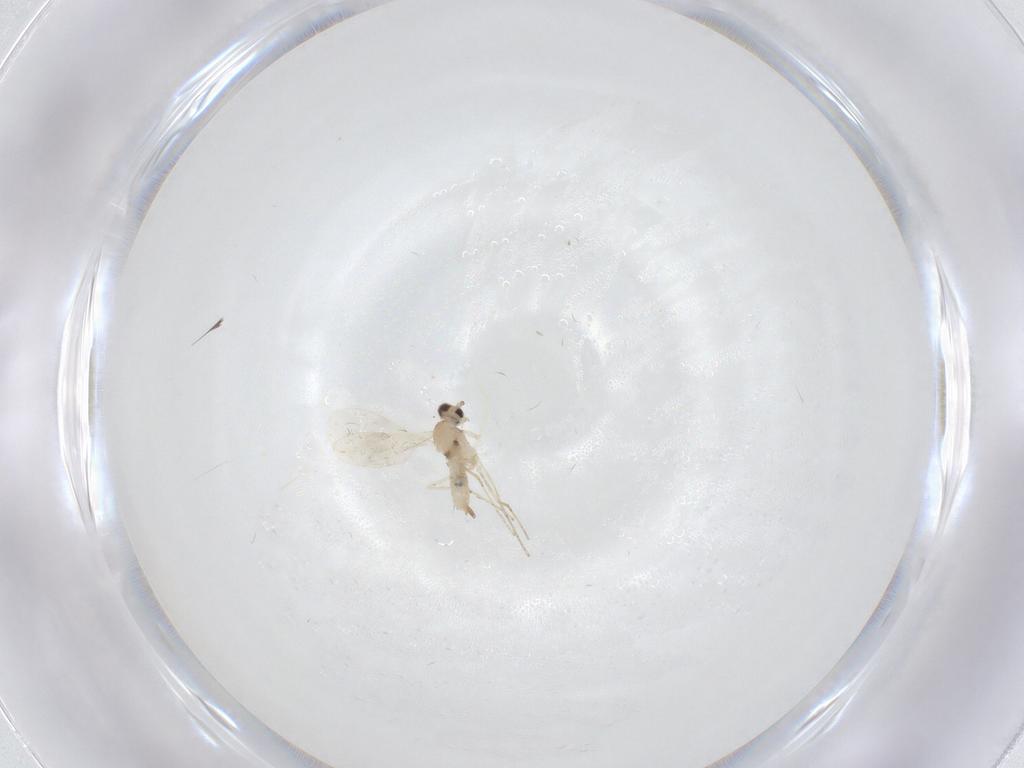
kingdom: Animalia
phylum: Arthropoda
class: Insecta
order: Diptera
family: Cecidomyiidae
